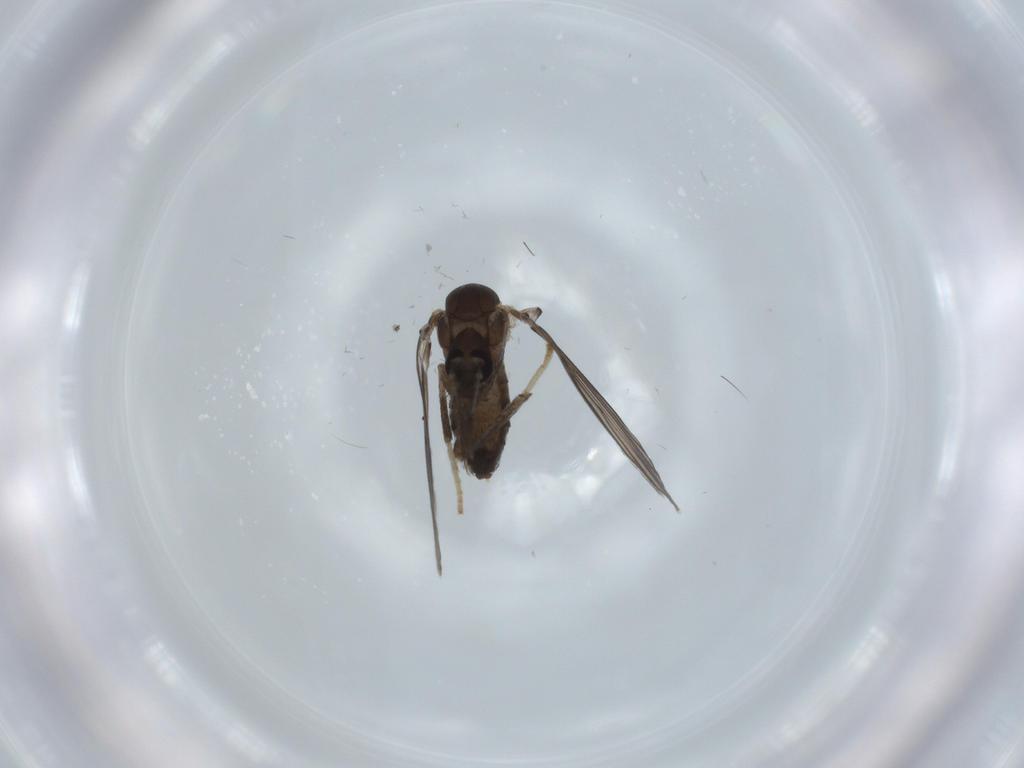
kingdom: Animalia
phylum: Arthropoda
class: Insecta
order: Diptera
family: Psychodidae
